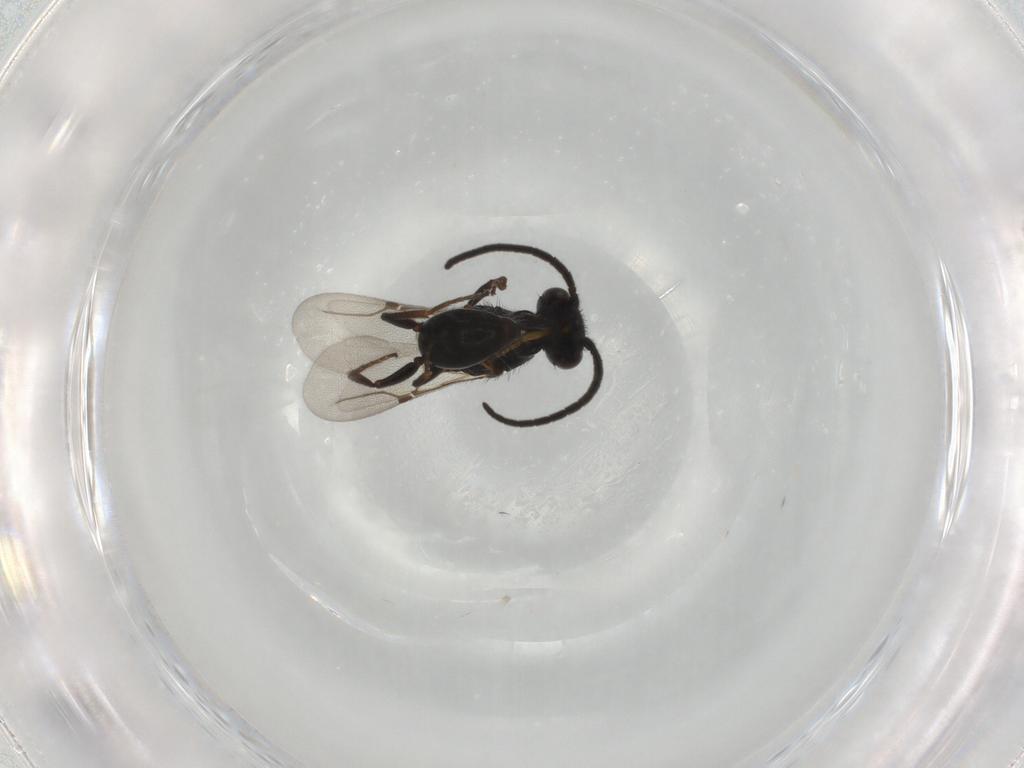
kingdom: Animalia
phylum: Arthropoda
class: Insecta
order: Hymenoptera
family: Bethylidae
